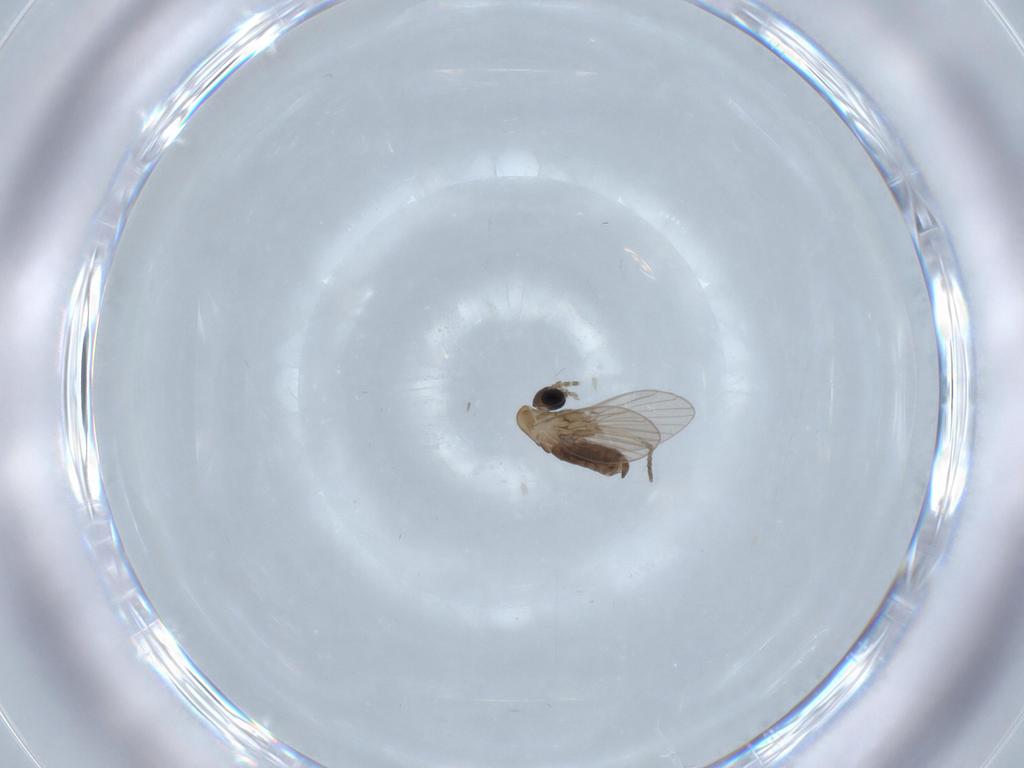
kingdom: Animalia
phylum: Arthropoda
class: Insecta
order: Diptera
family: Psychodidae
